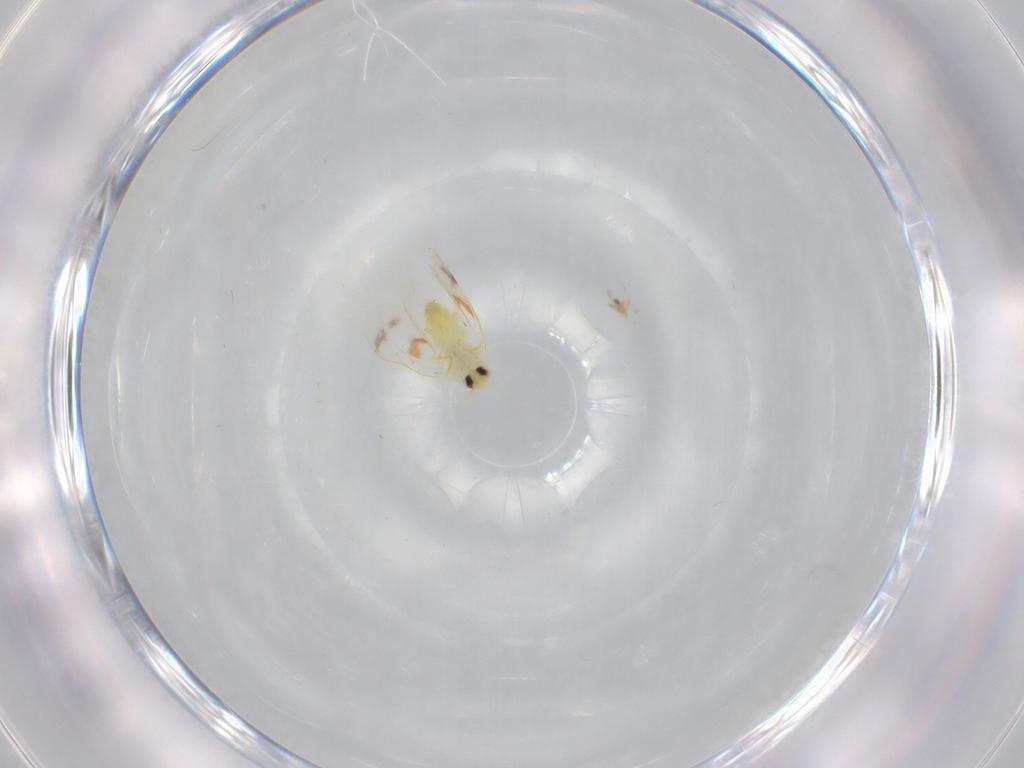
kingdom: Animalia
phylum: Arthropoda
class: Insecta
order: Hemiptera
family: Aleyrodidae
